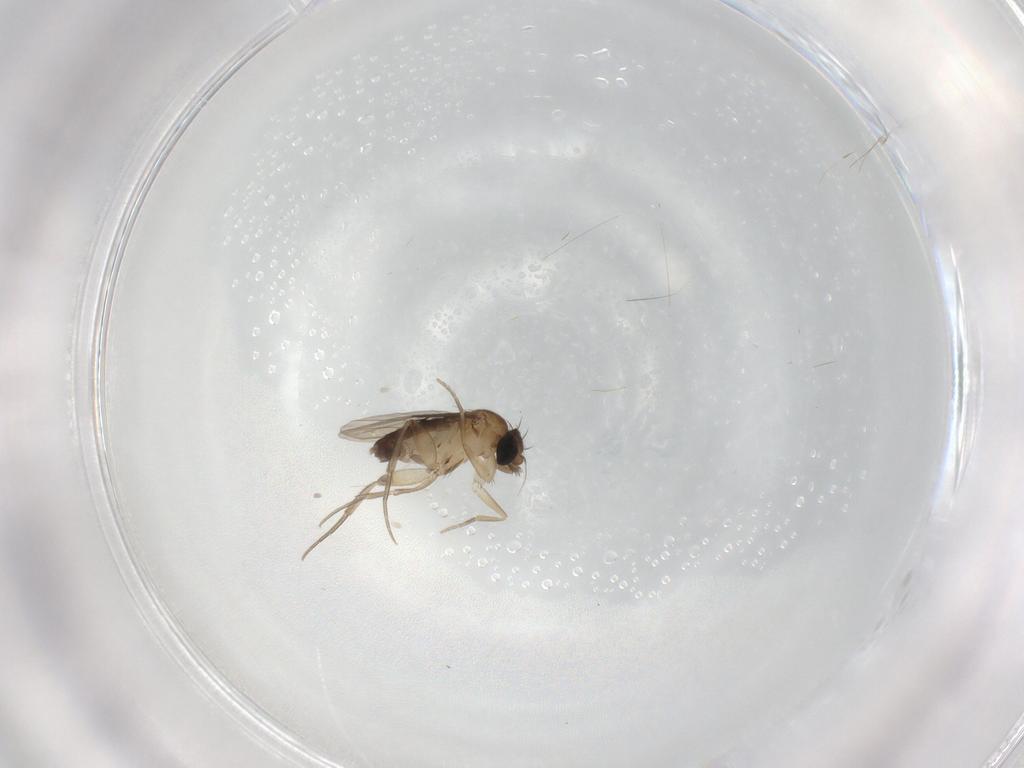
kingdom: Animalia
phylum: Arthropoda
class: Insecta
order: Diptera
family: Phoridae
